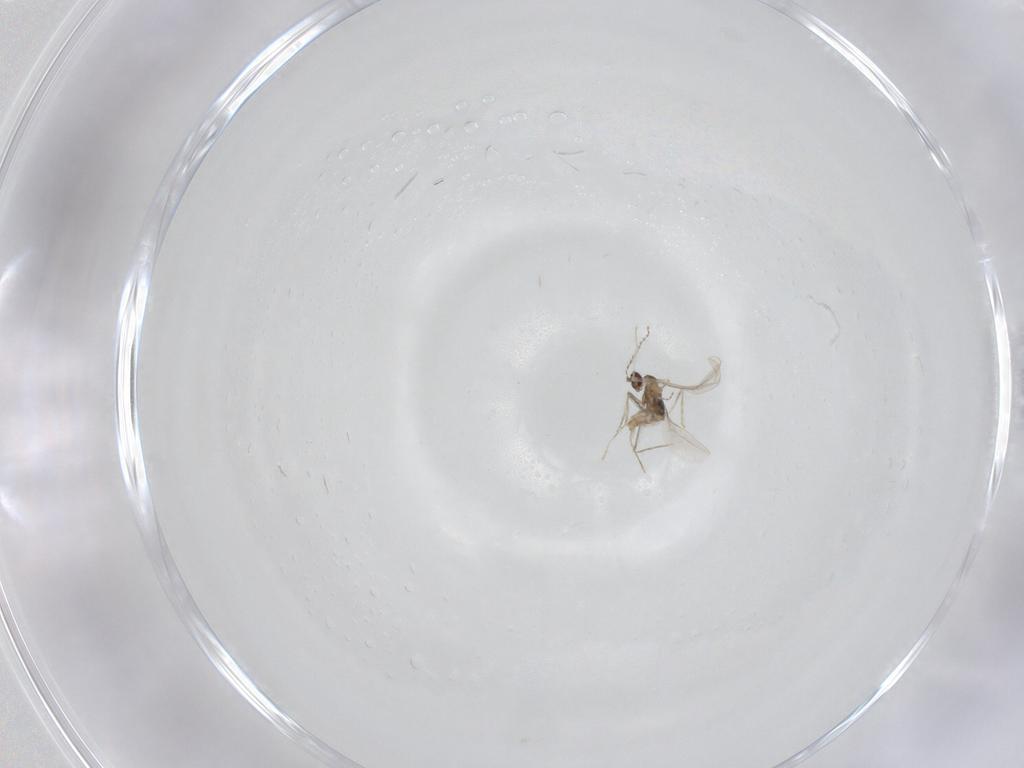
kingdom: Animalia
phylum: Arthropoda
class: Insecta
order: Diptera
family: Cecidomyiidae
